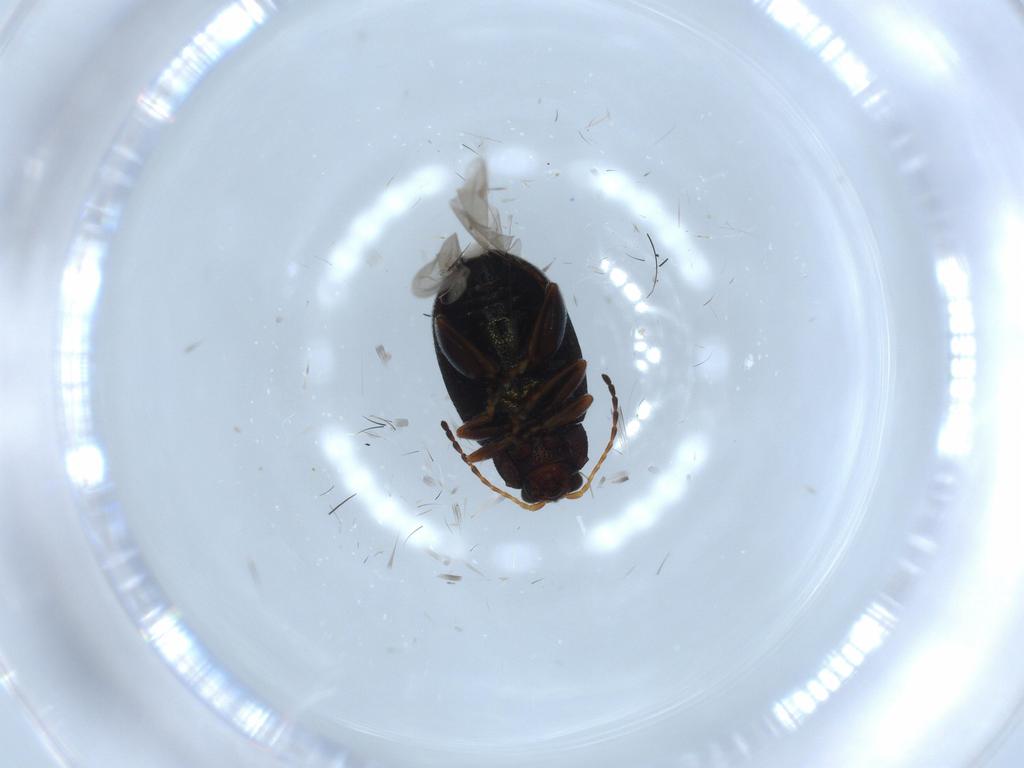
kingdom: Animalia
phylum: Arthropoda
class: Insecta
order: Coleoptera
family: Chrysomelidae
